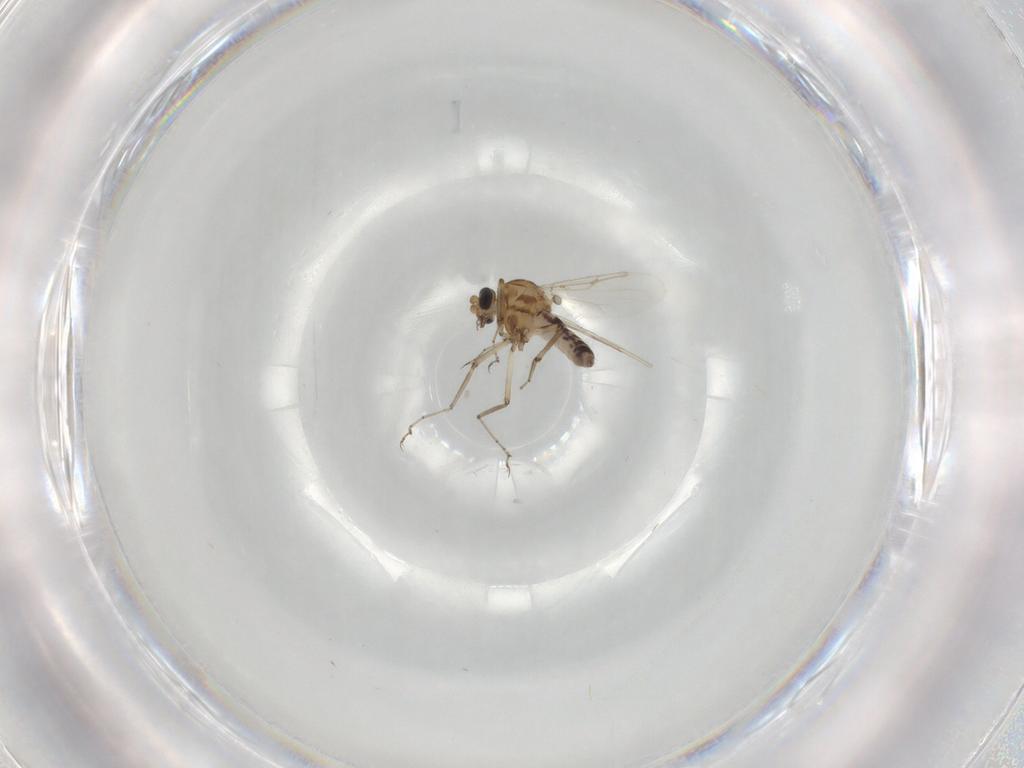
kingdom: Animalia
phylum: Arthropoda
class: Insecta
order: Diptera
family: Ceratopogonidae
